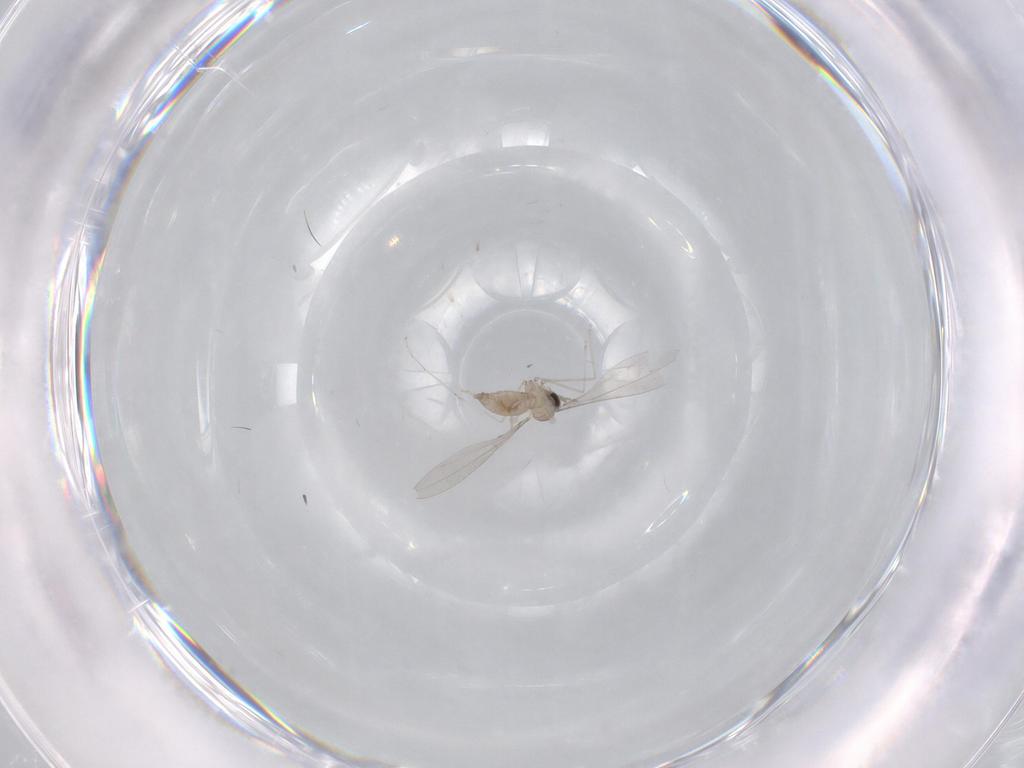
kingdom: Animalia
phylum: Arthropoda
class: Insecta
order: Diptera
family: Cecidomyiidae
